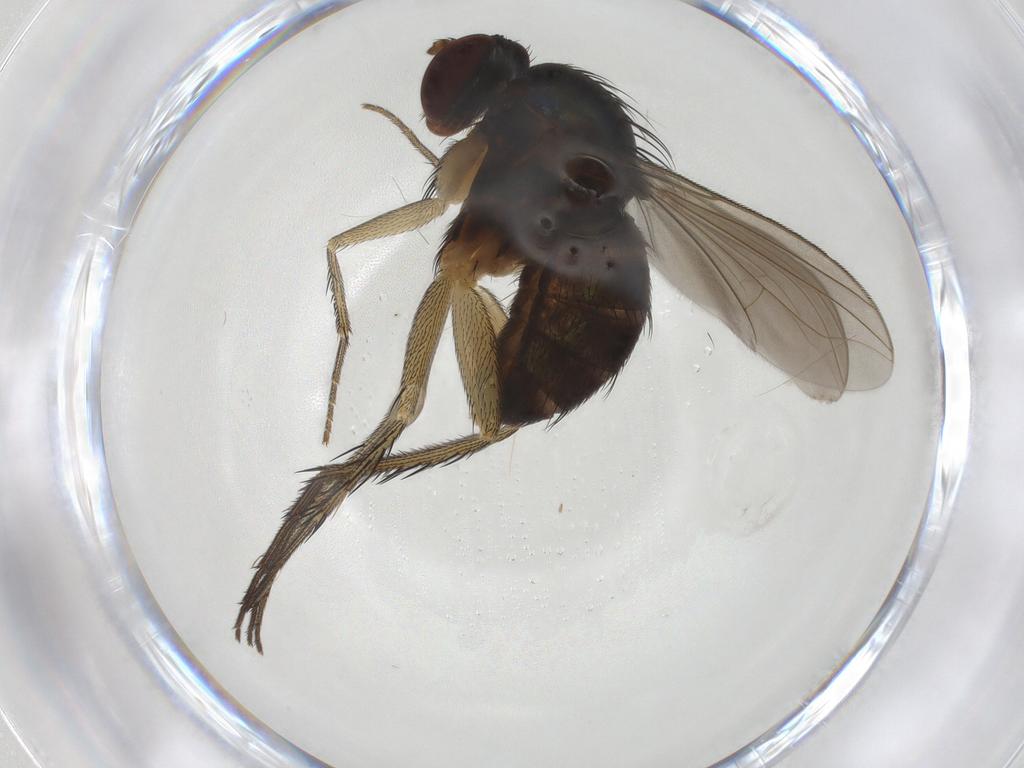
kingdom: Animalia
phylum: Arthropoda
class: Insecta
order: Diptera
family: Dolichopodidae
